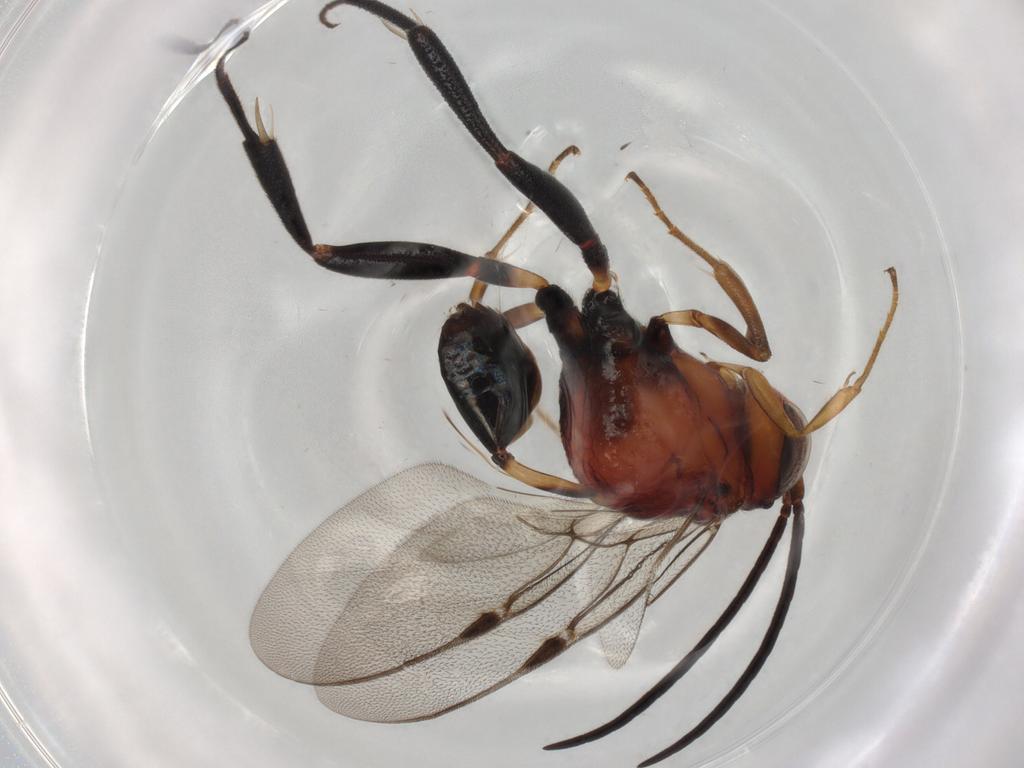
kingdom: Animalia
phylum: Arthropoda
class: Insecta
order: Hymenoptera
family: Evaniidae
